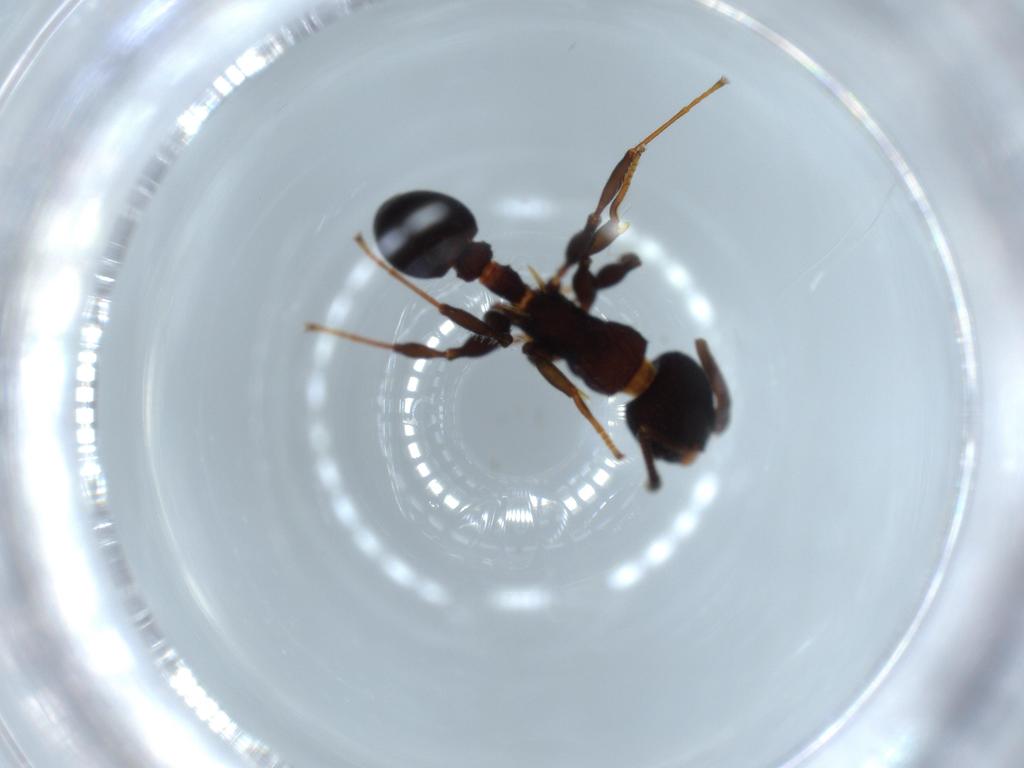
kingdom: Animalia
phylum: Arthropoda
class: Insecta
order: Hymenoptera
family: Formicidae
